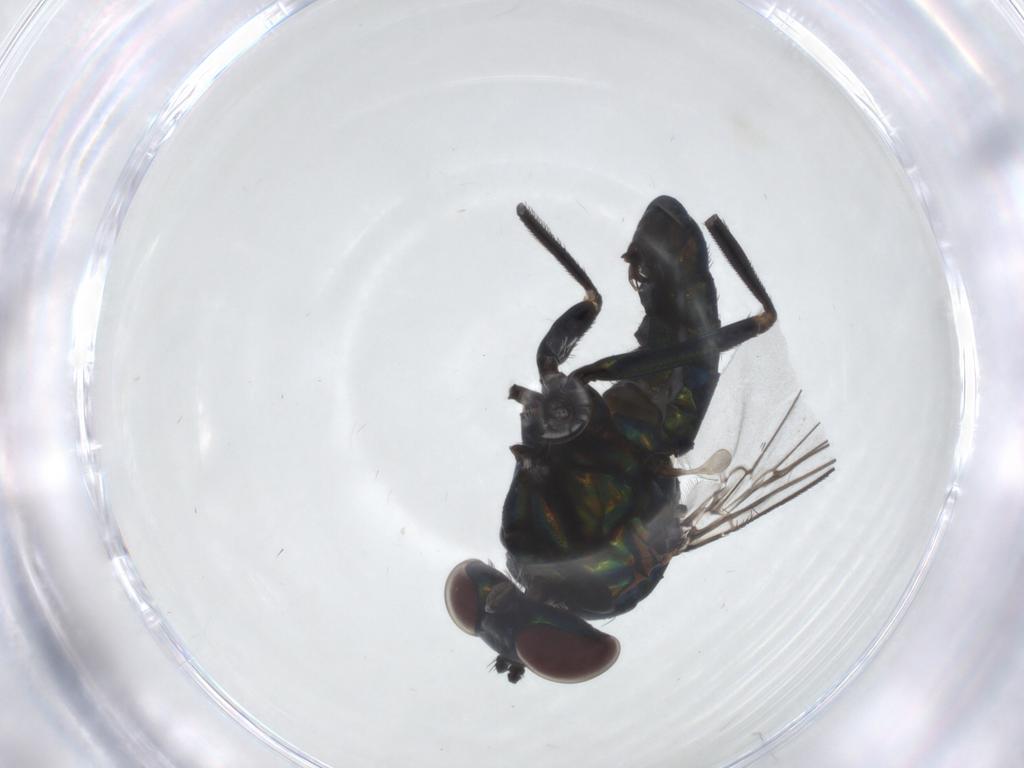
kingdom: Animalia
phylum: Arthropoda
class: Insecta
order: Diptera
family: Dolichopodidae
